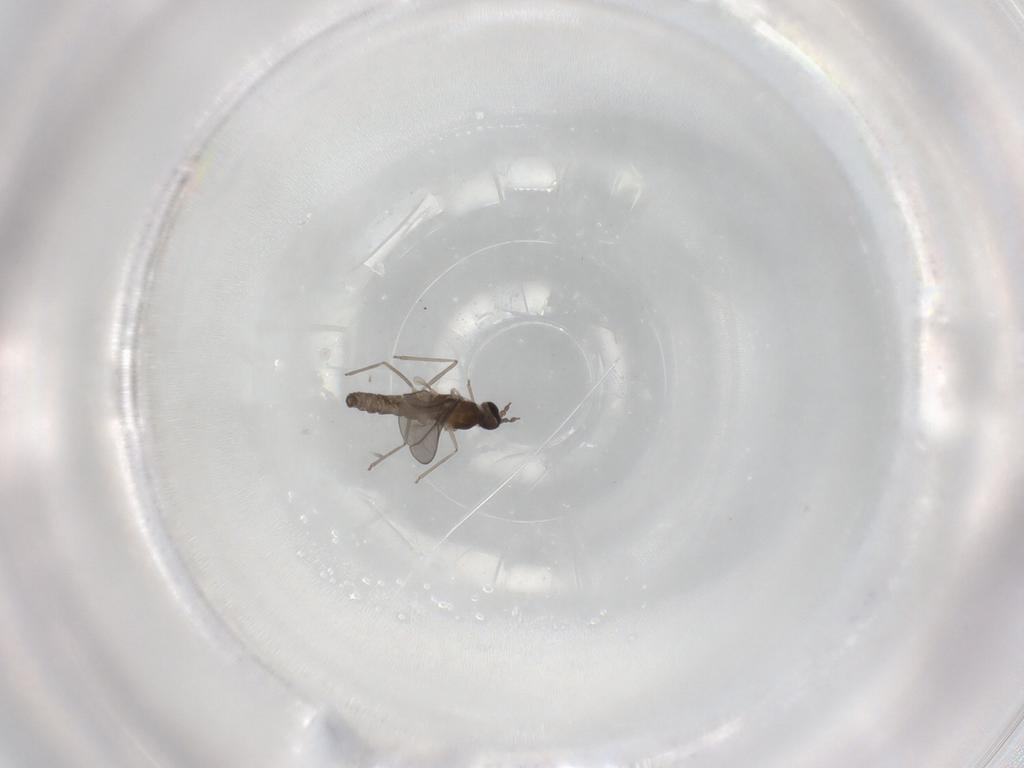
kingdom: Animalia
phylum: Arthropoda
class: Insecta
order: Diptera
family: Cecidomyiidae
